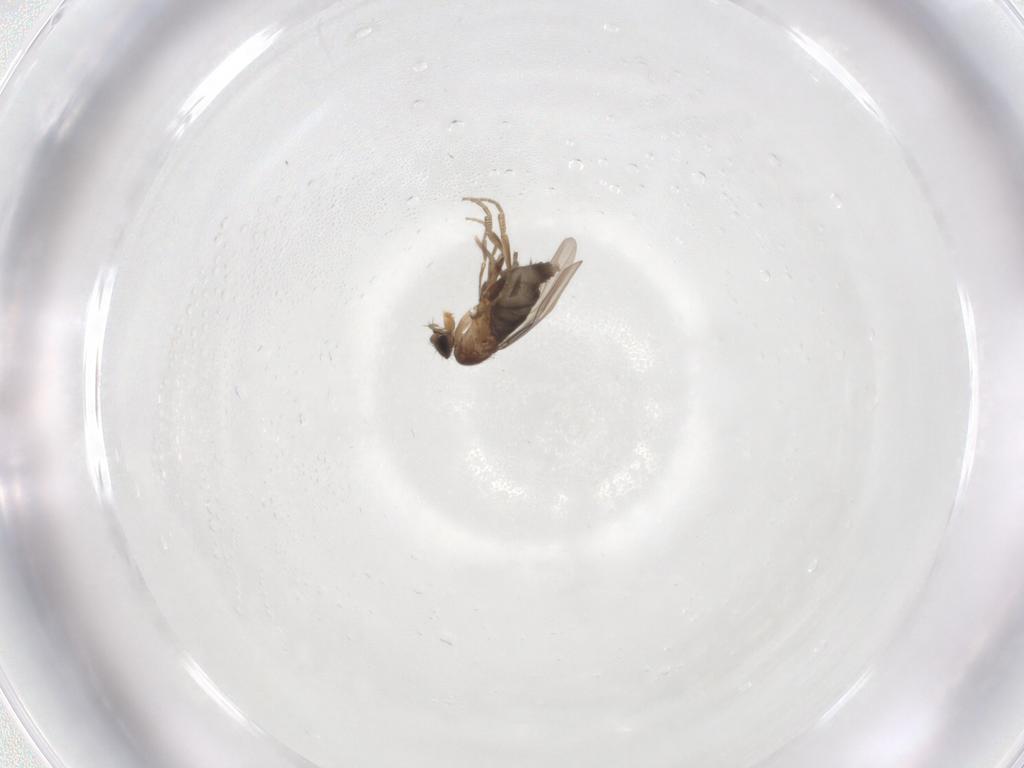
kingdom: Animalia
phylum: Arthropoda
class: Insecta
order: Diptera
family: Cecidomyiidae
